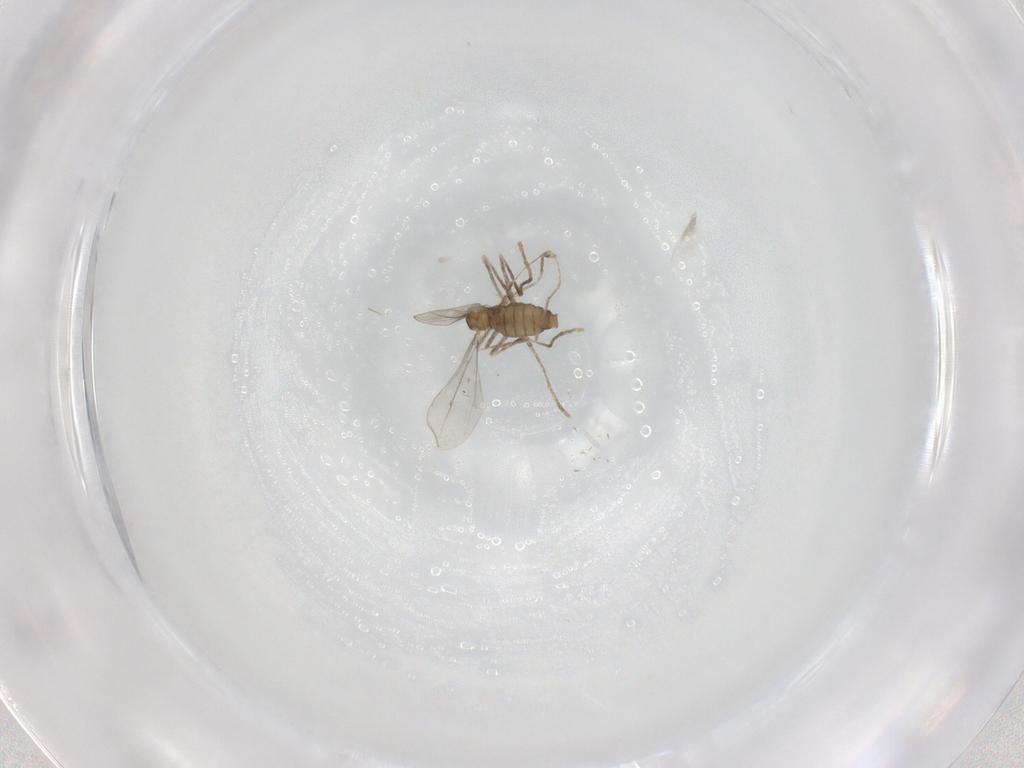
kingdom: Animalia
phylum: Arthropoda
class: Insecta
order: Diptera
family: Cecidomyiidae
